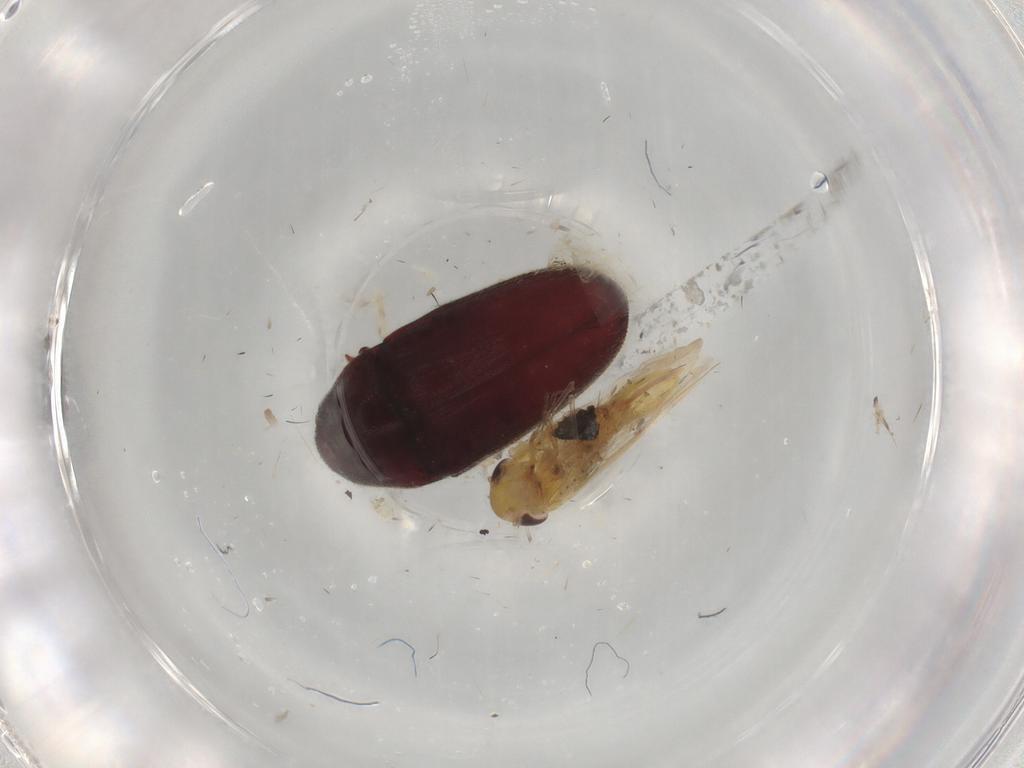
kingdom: Animalia
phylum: Arthropoda
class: Insecta
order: Coleoptera
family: Throscidae
